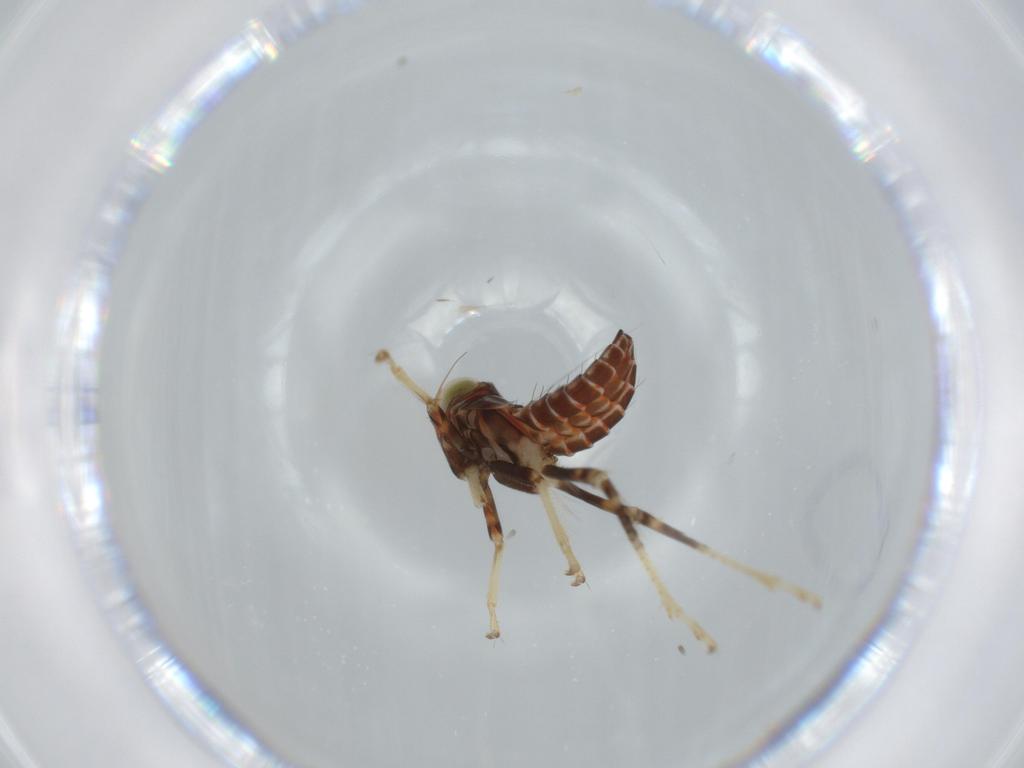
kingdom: Animalia
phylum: Arthropoda
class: Insecta
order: Hemiptera
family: Cicadellidae
